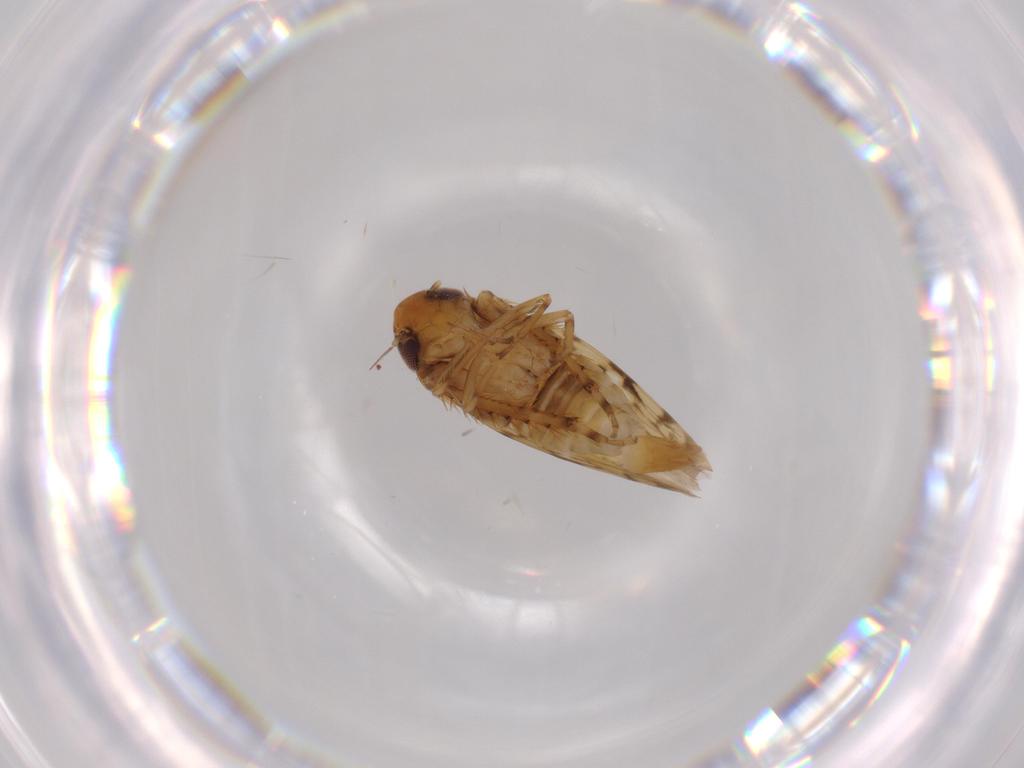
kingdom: Animalia
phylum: Arthropoda
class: Insecta
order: Hemiptera
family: Cicadellidae
